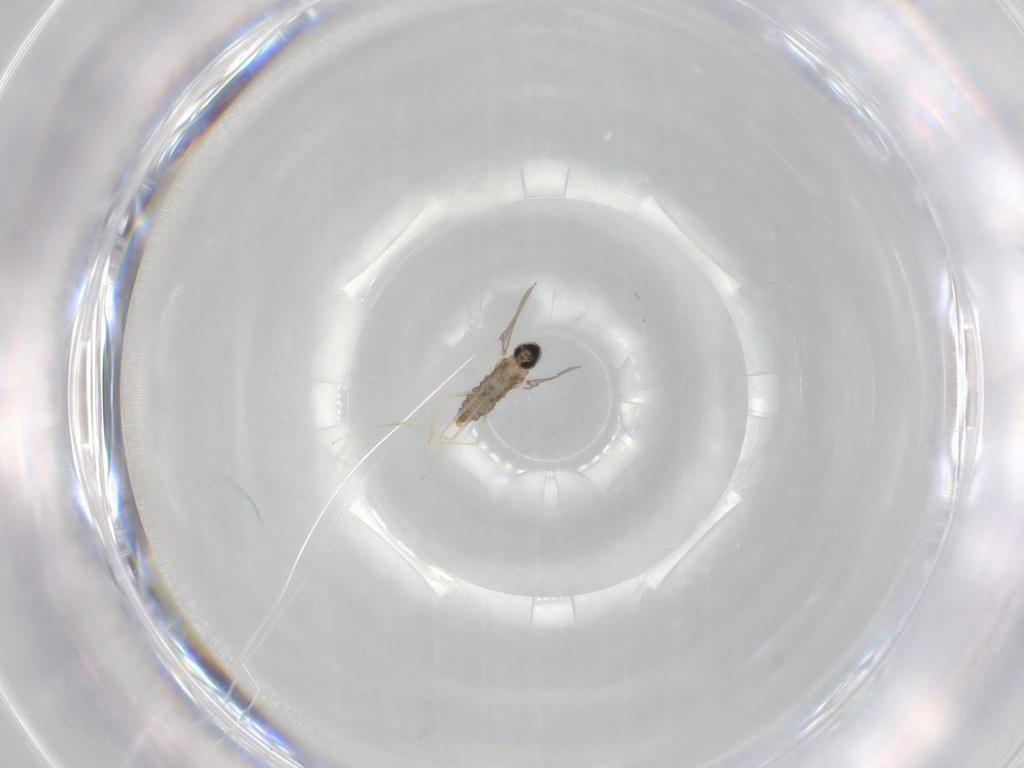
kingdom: Animalia
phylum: Arthropoda
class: Insecta
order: Diptera
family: Cecidomyiidae
